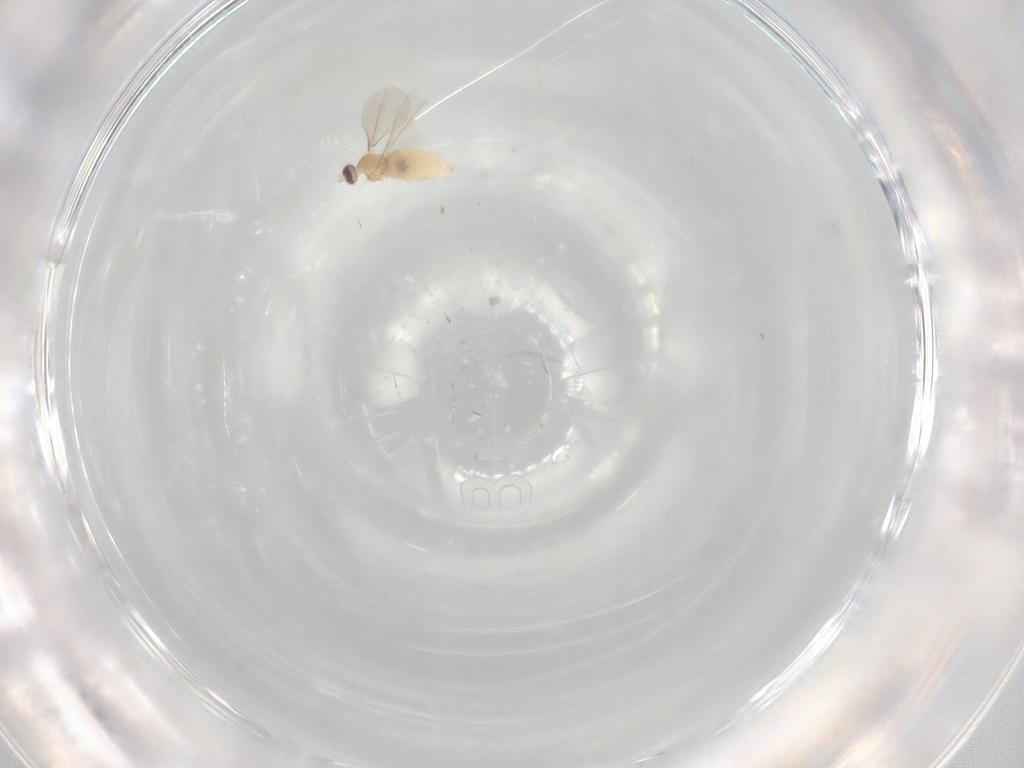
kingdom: Animalia
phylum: Arthropoda
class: Insecta
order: Diptera
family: Cecidomyiidae
